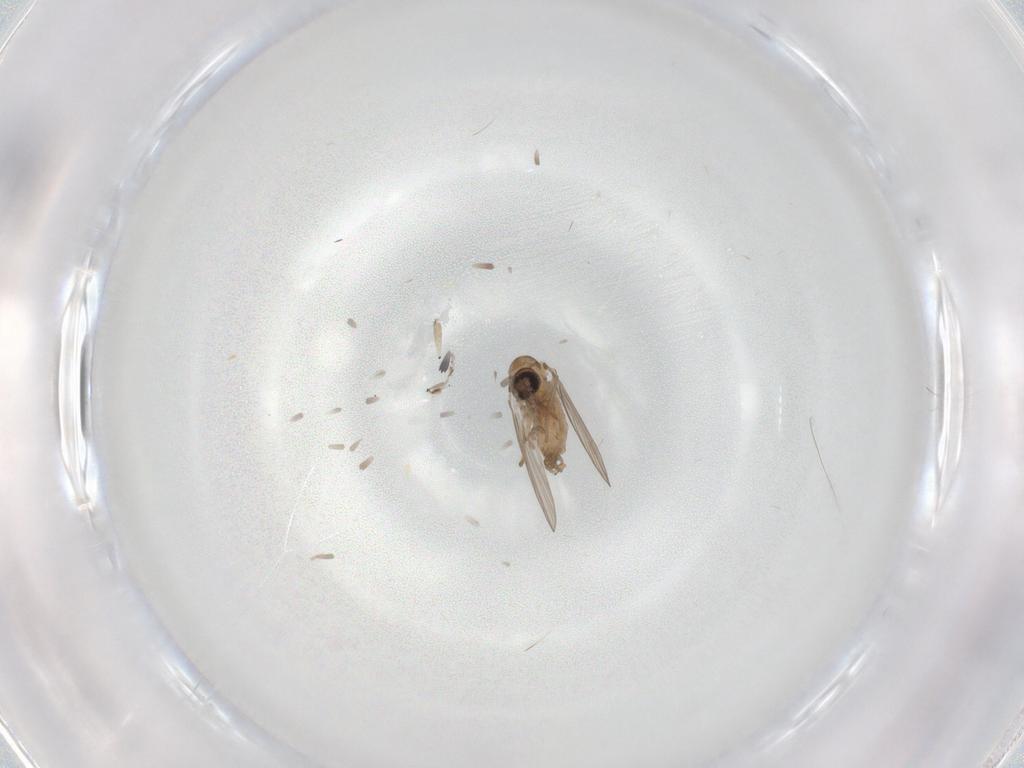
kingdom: Animalia
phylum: Arthropoda
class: Insecta
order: Diptera
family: Psychodidae
